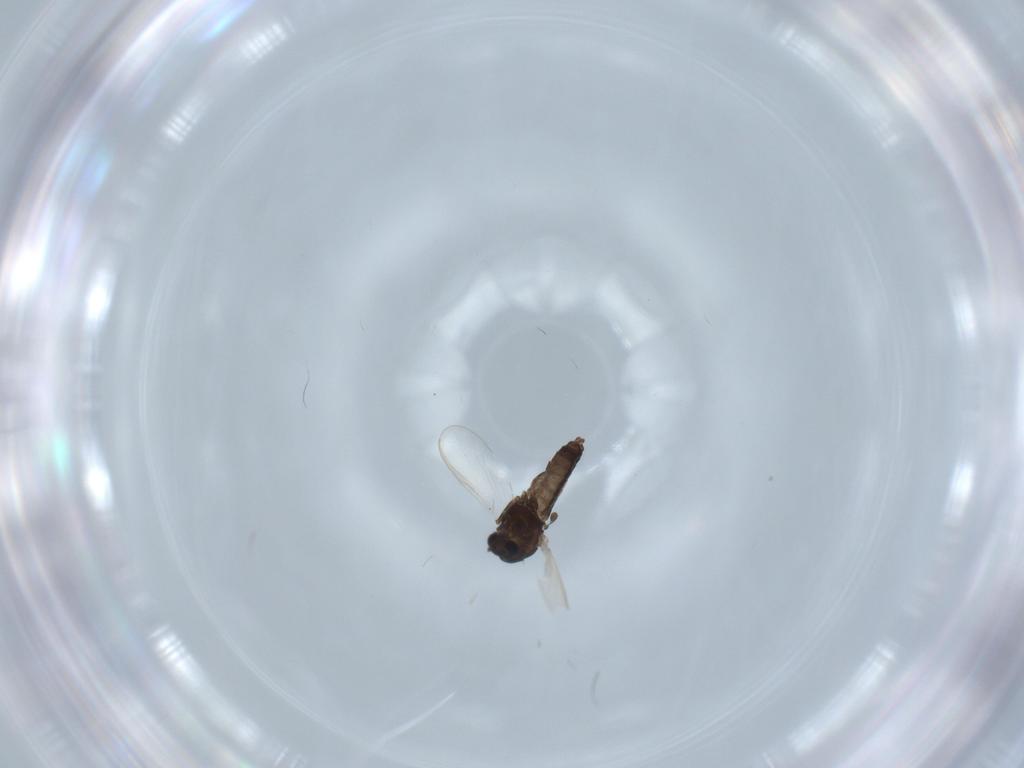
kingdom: Animalia
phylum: Arthropoda
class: Insecta
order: Diptera
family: Chironomidae
